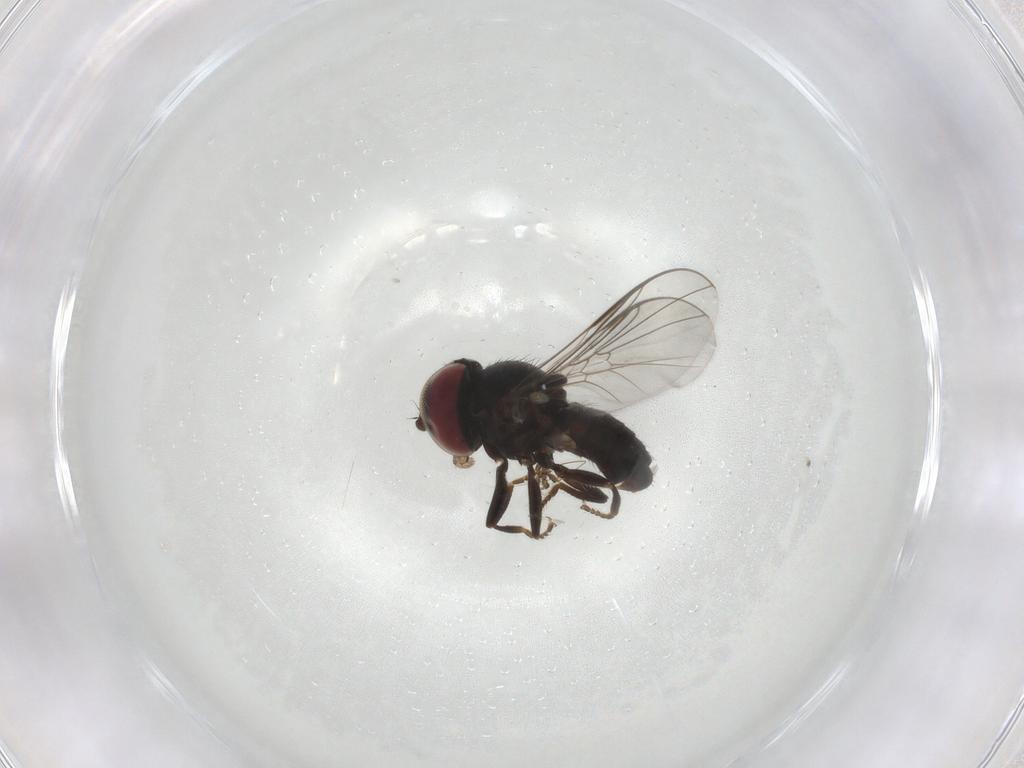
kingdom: Animalia
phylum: Arthropoda
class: Insecta
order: Diptera
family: Pipunculidae
